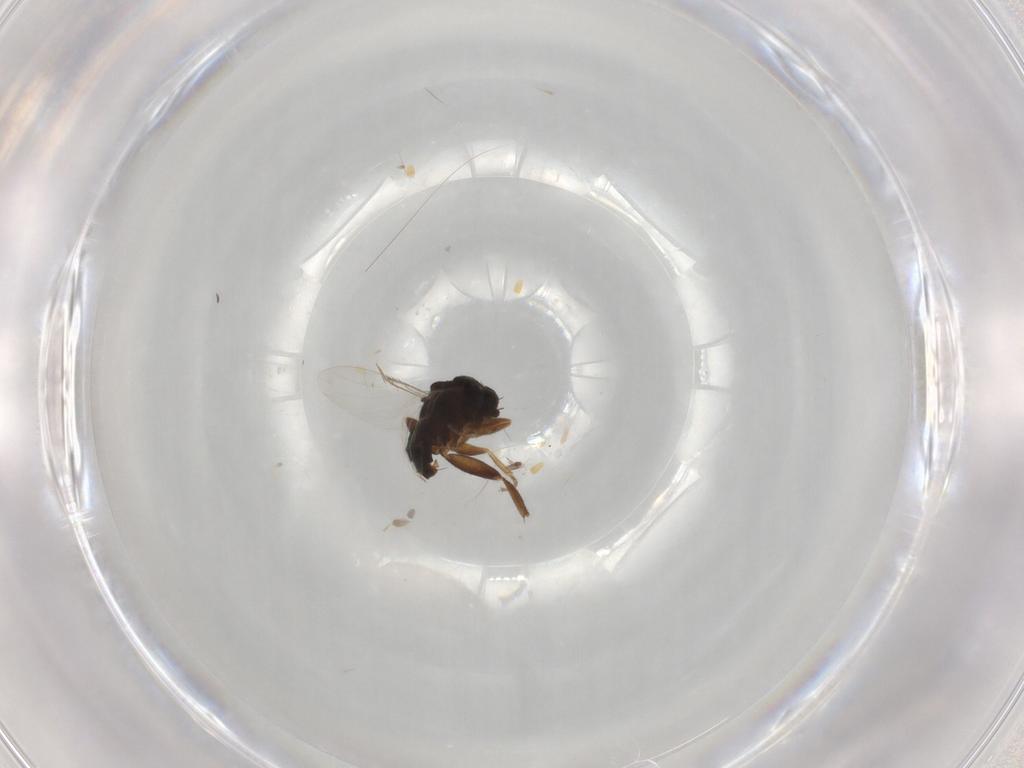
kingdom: Animalia
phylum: Arthropoda
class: Insecta
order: Diptera
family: Phoridae
